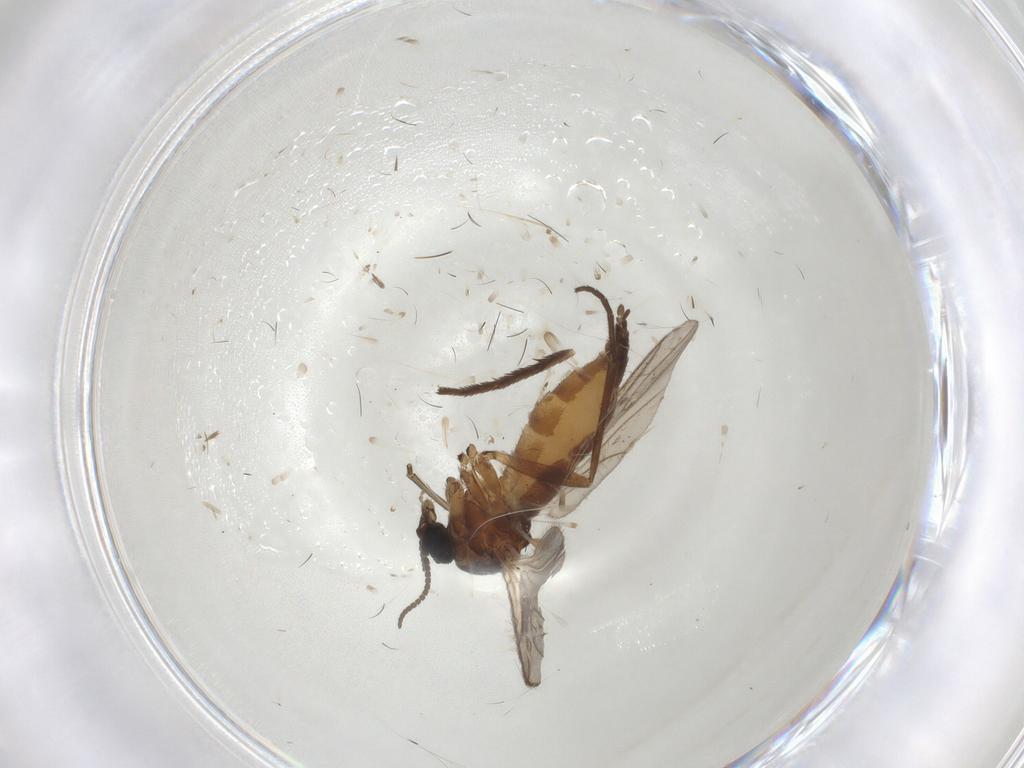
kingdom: Animalia
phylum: Arthropoda
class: Insecta
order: Diptera
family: Sciaridae
